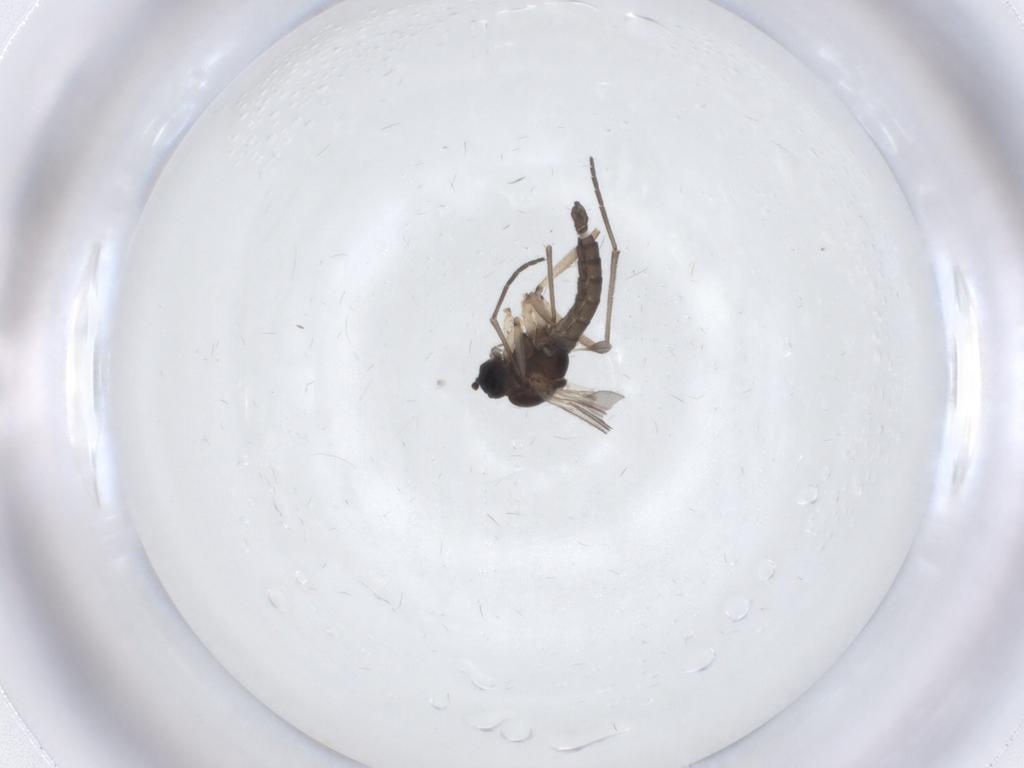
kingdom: Animalia
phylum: Arthropoda
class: Insecta
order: Diptera
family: Sciaridae
